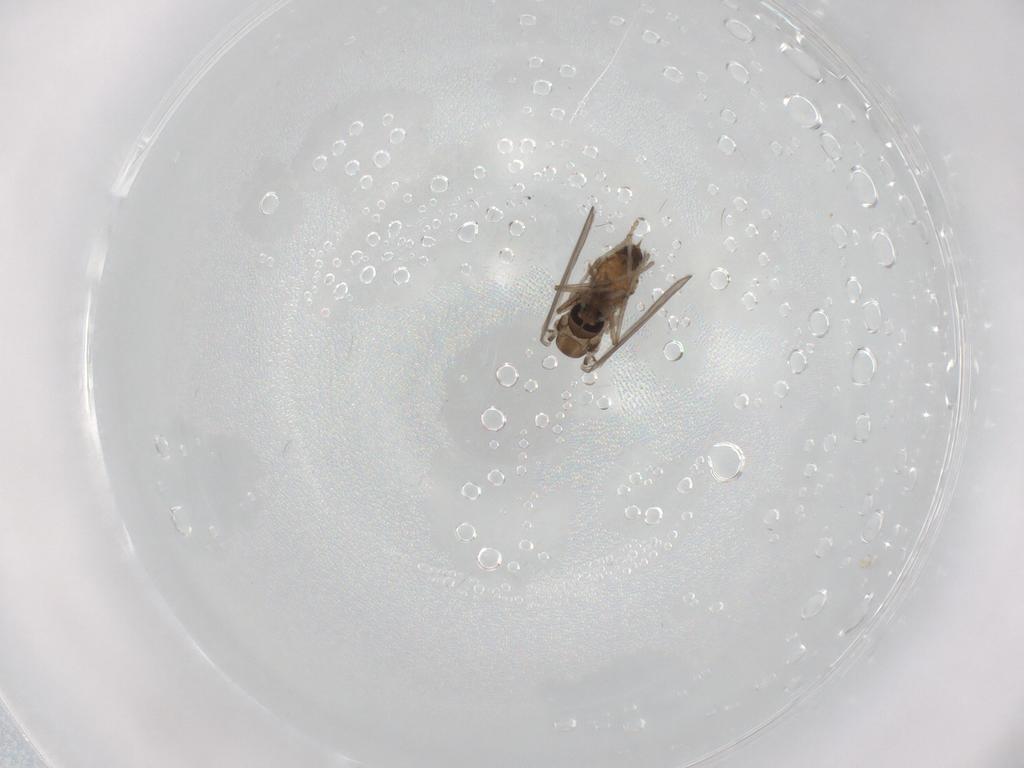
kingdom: Animalia
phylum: Arthropoda
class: Insecta
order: Diptera
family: Psychodidae
